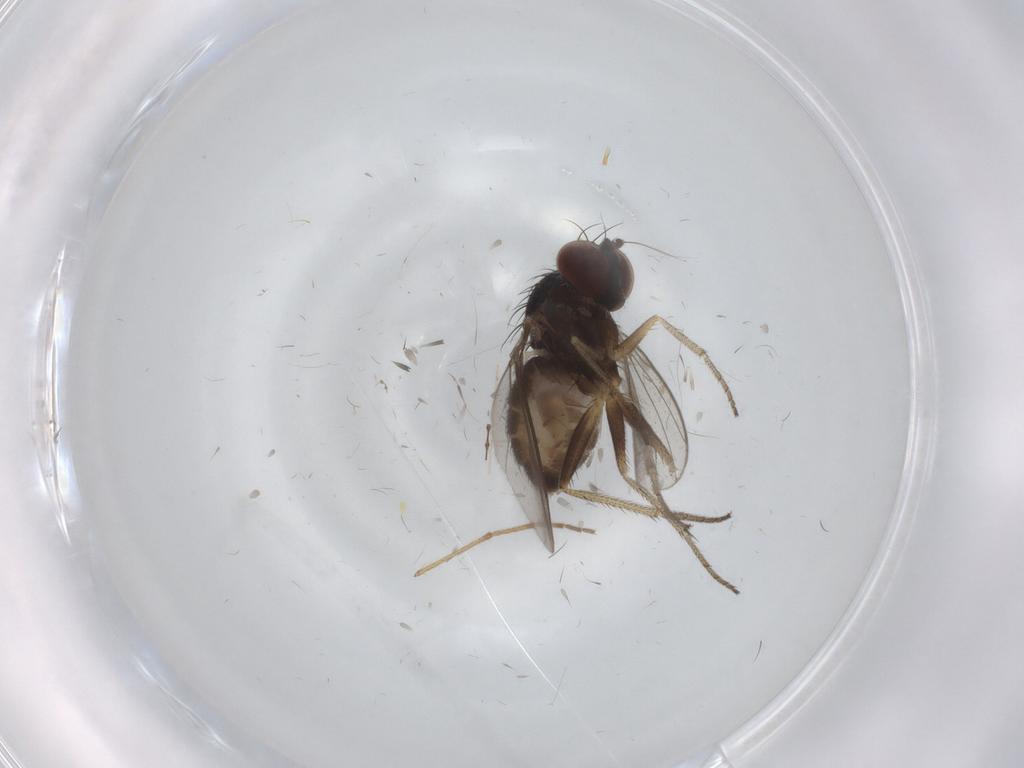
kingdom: Animalia
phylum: Arthropoda
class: Insecta
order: Diptera
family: Dolichopodidae
